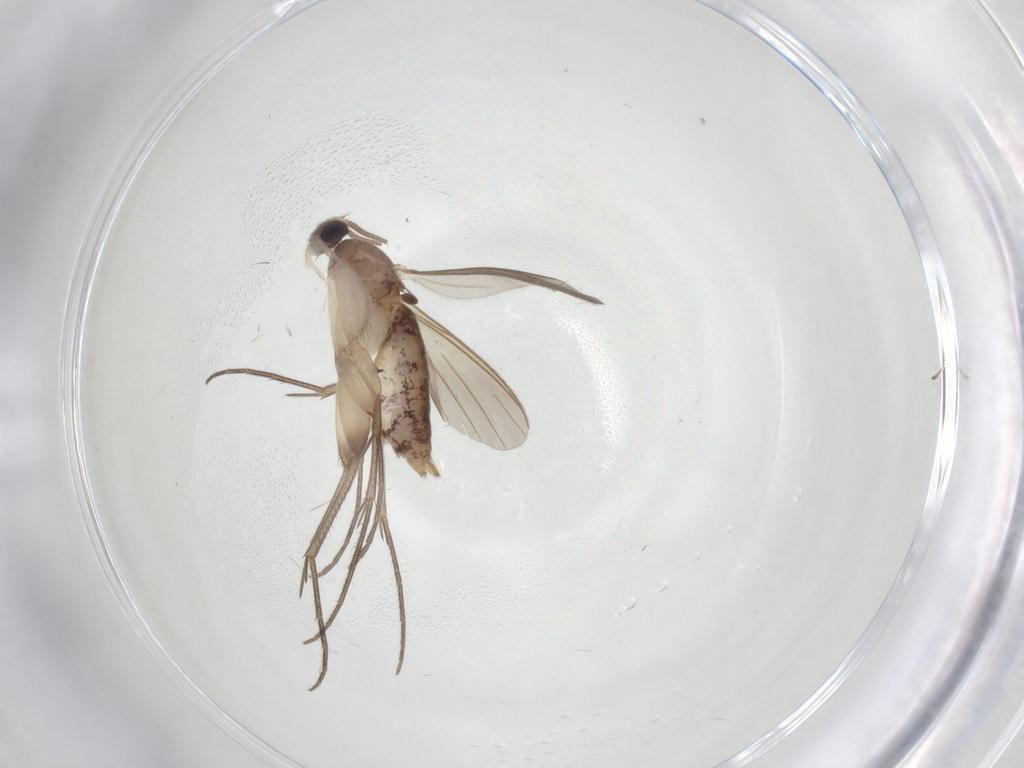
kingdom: Animalia
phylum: Arthropoda
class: Insecta
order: Diptera
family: Mycetophilidae
